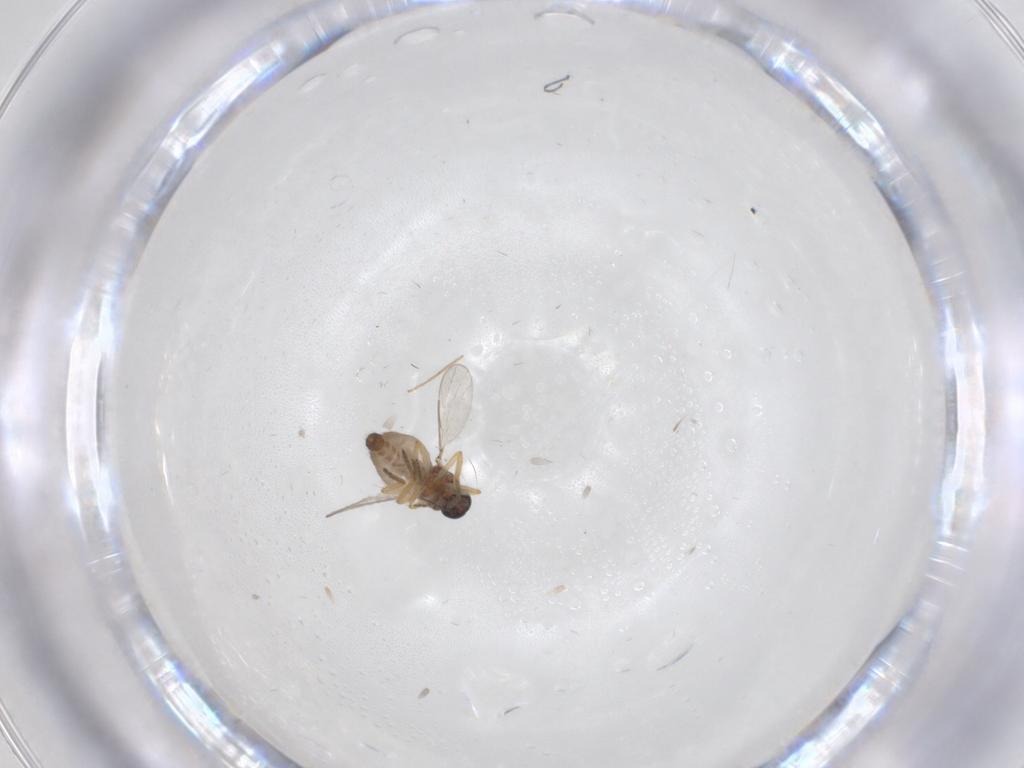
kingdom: Animalia
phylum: Arthropoda
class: Insecta
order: Diptera
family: Ceratopogonidae
